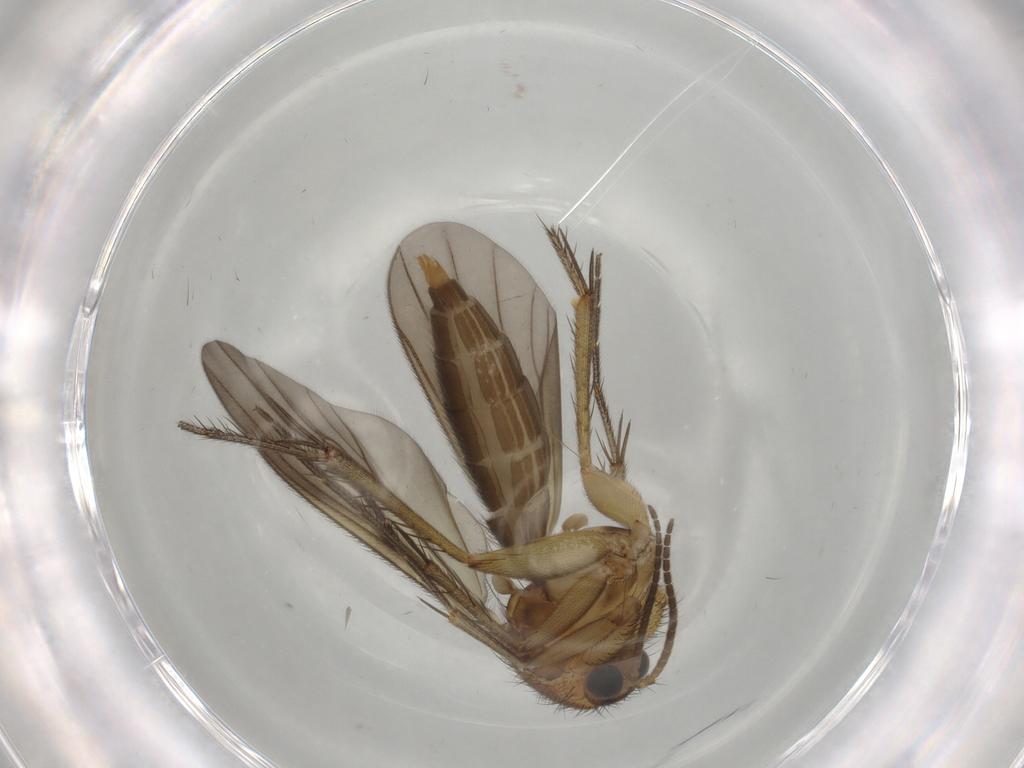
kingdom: Animalia
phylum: Arthropoda
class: Insecta
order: Diptera
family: Mycetophilidae
